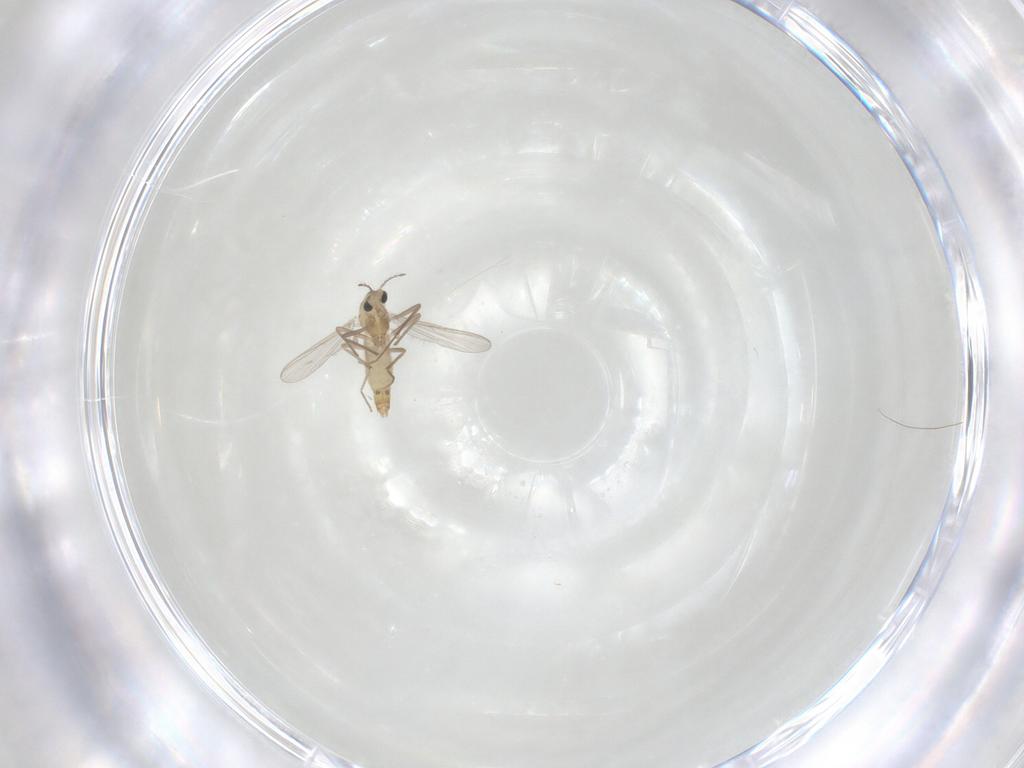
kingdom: Animalia
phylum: Arthropoda
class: Insecta
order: Diptera
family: Chironomidae
